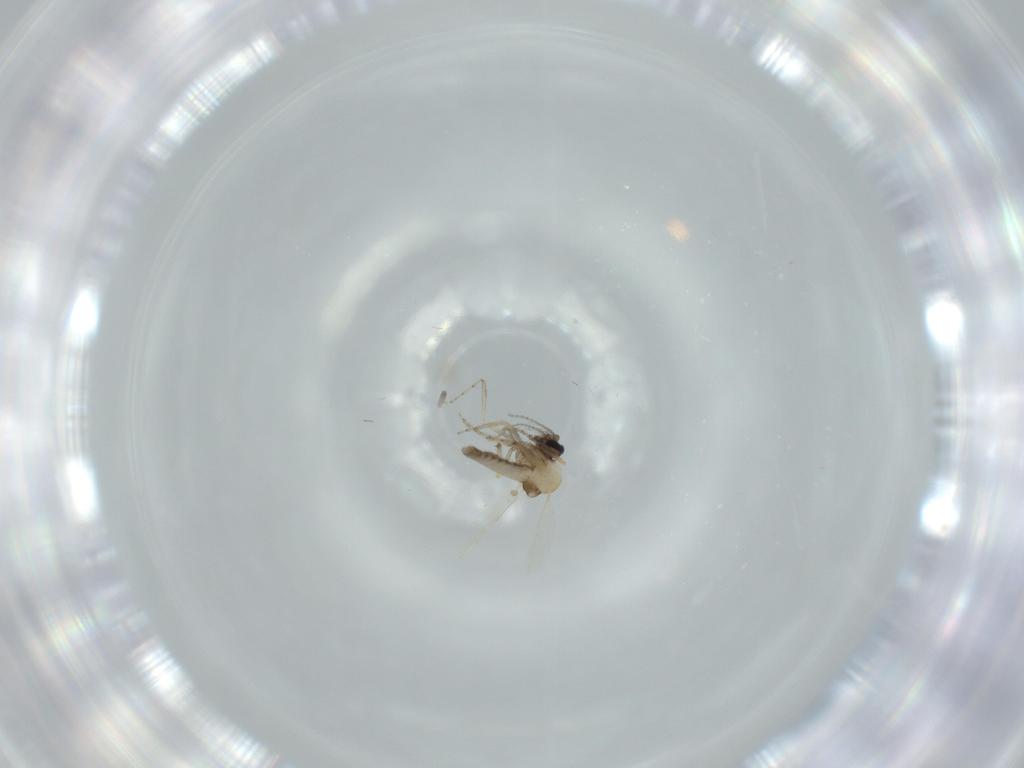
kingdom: Animalia
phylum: Arthropoda
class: Insecta
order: Diptera
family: Ceratopogonidae
